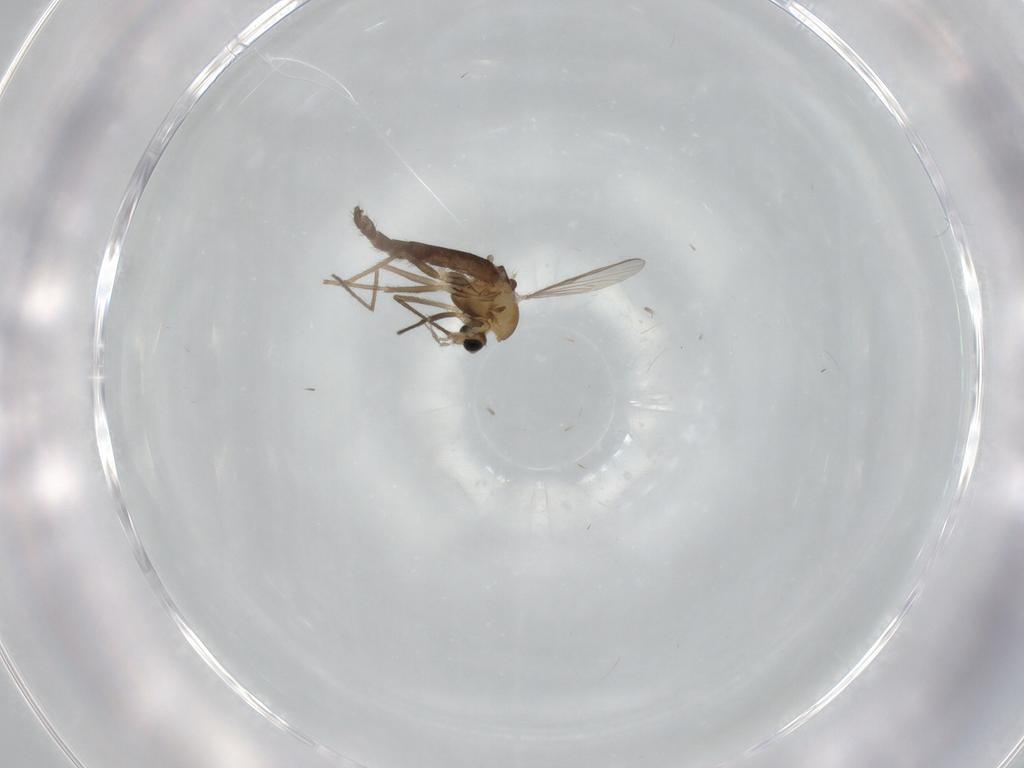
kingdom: Animalia
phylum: Arthropoda
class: Insecta
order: Diptera
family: Chironomidae
